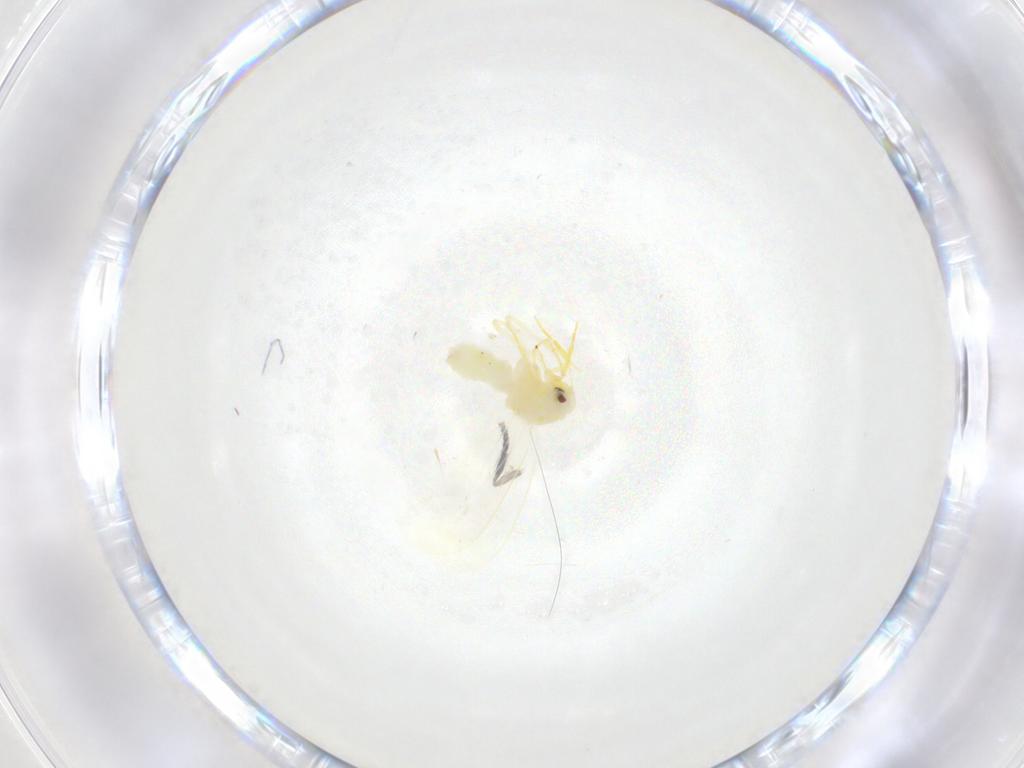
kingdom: Animalia
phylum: Arthropoda
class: Insecta
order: Hemiptera
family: Aleyrodidae
